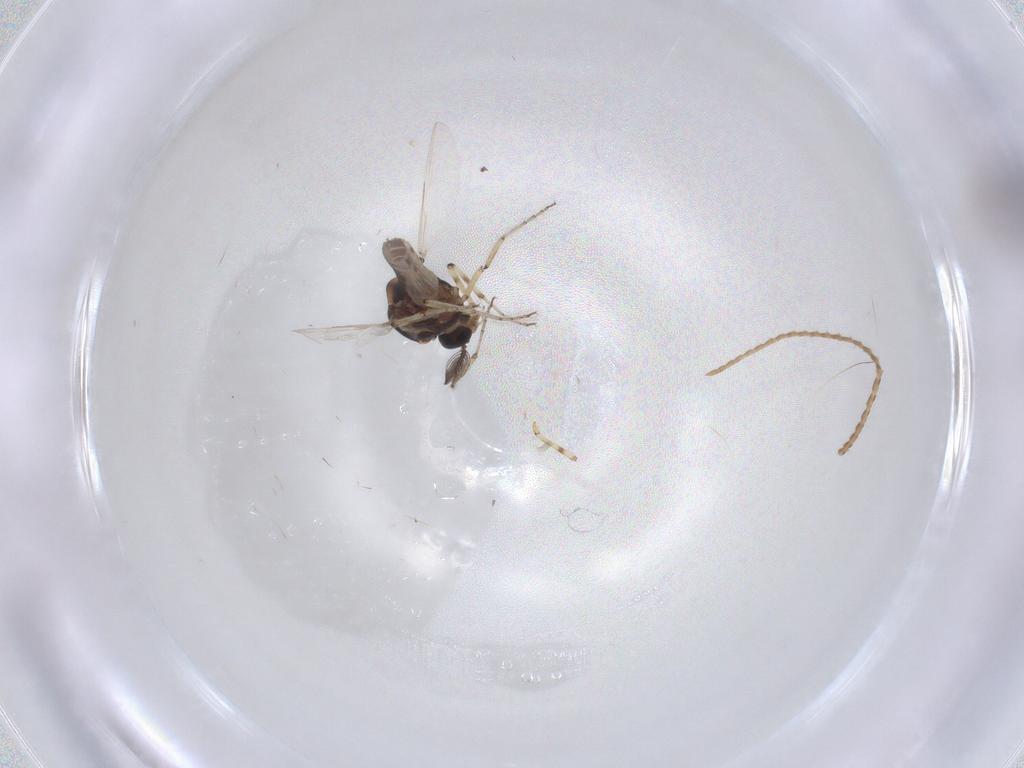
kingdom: Animalia
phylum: Arthropoda
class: Insecta
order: Diptera
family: Ceratopogonidae
